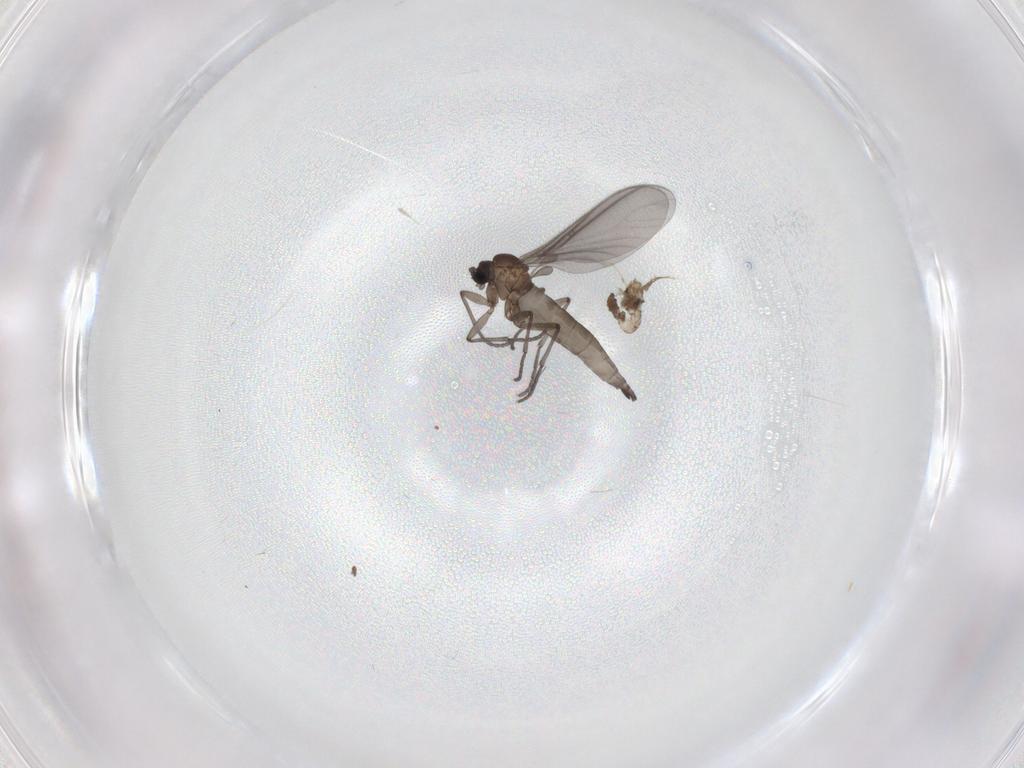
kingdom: Animalia
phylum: Arthropoda
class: Insecta
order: Diptera
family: Sciaridae
